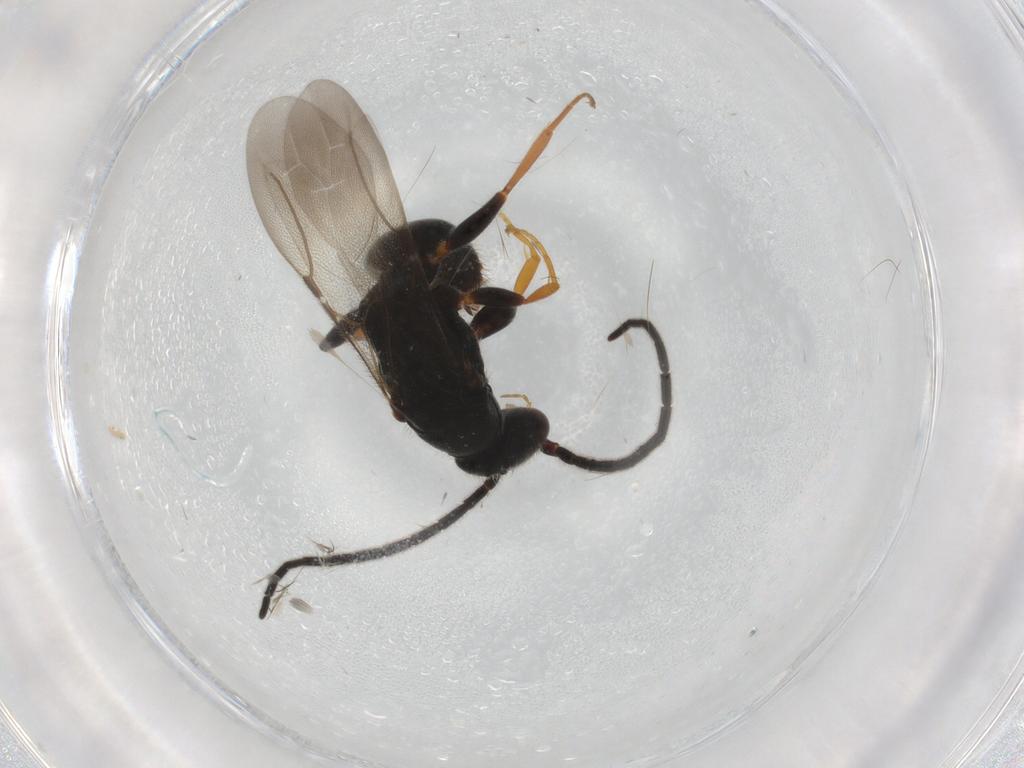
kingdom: Animalia
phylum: Arthropoda
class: Insecta
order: Hymenoptera
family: Bethylidae
